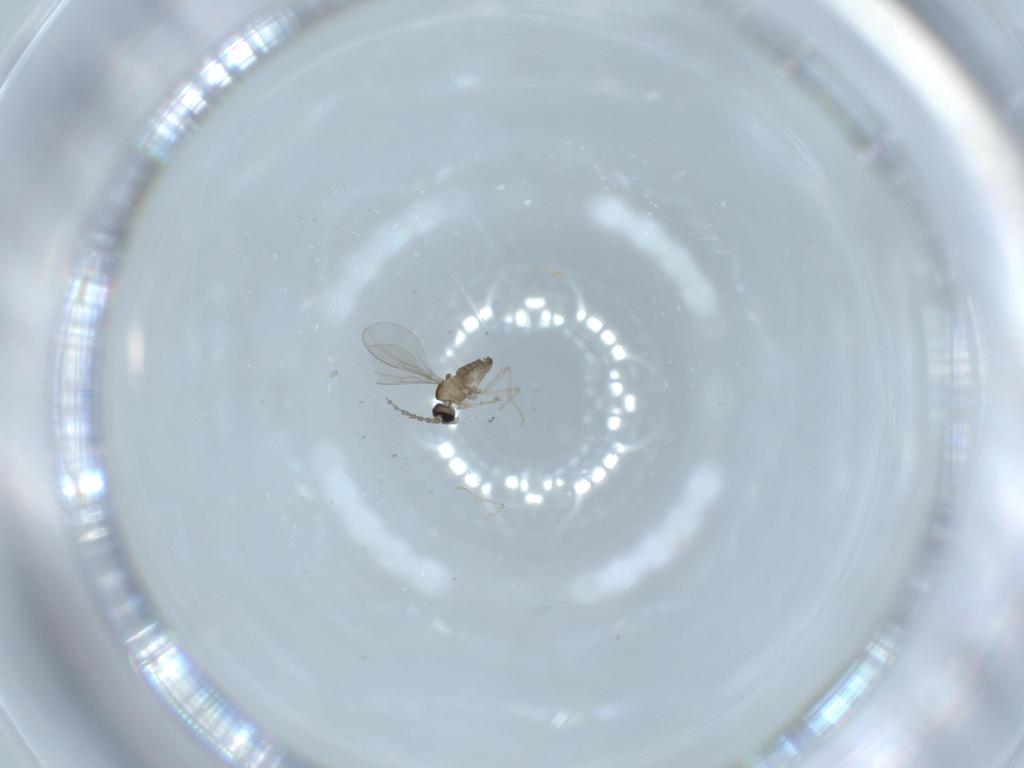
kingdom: Animalia
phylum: Arthropoda
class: Insecta
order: Diptera
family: Cecidomyiidae
